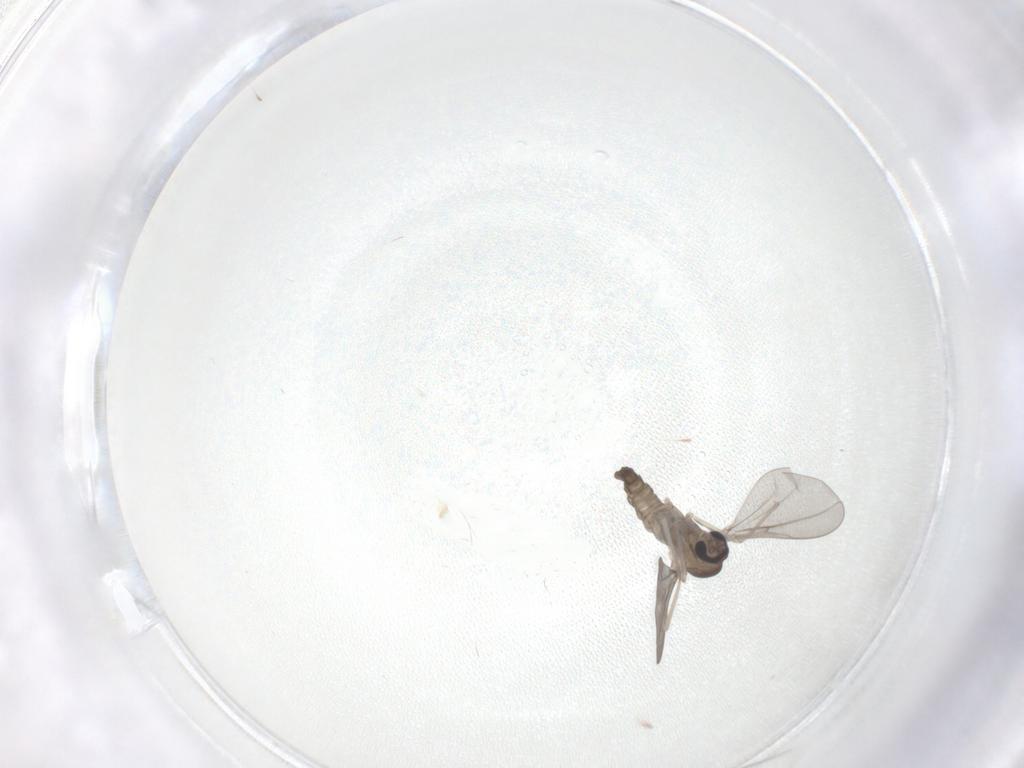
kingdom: Animalia
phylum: Arthropoda
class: Insecta
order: Diptera
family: Cecidomyiidae
